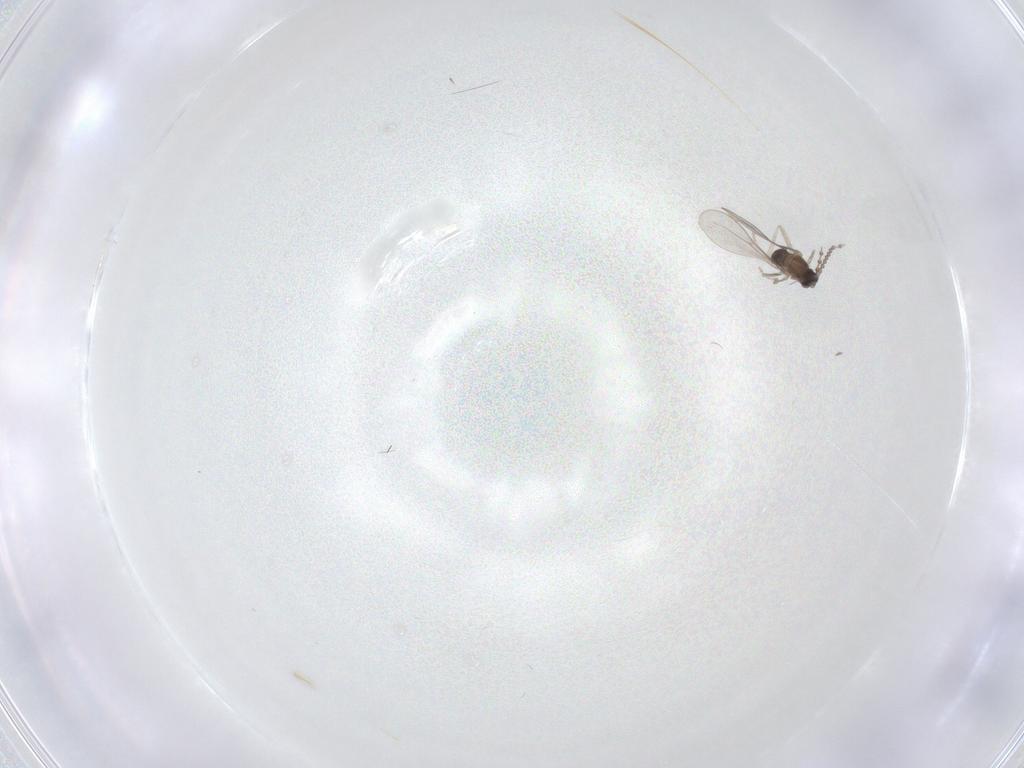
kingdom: Animalia
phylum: Arthropoda
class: Insecta
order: Diptera
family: Cecidomyiidae
